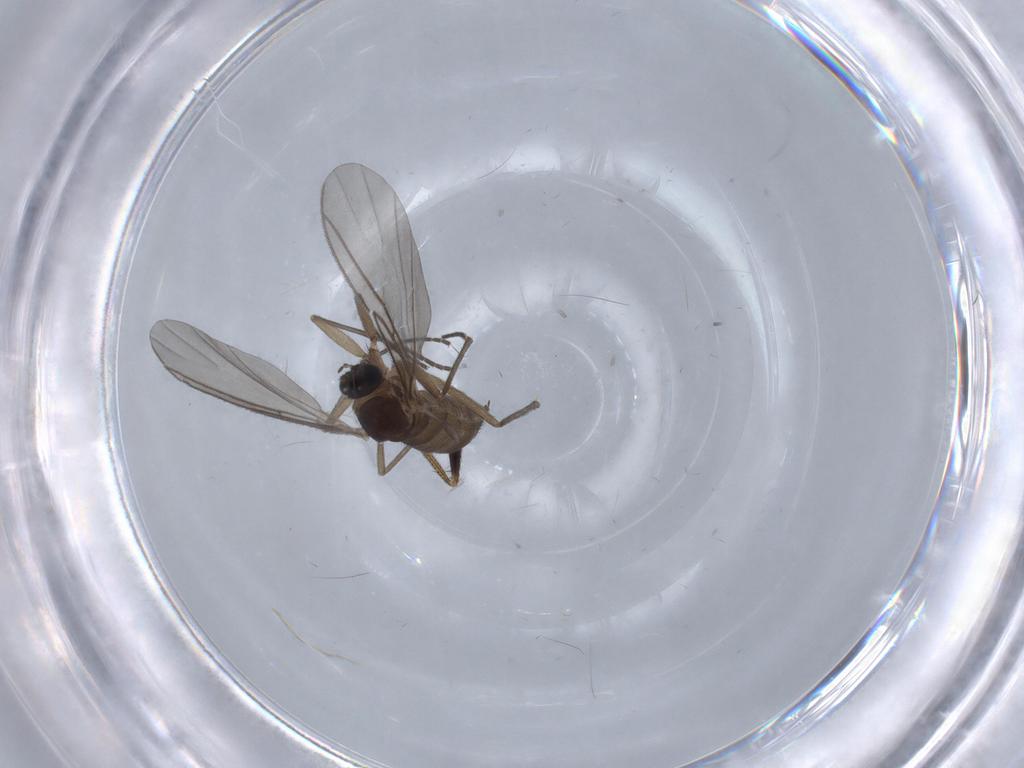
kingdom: Animalia
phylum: Arthropoda
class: Insecta
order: Diptera
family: Sciaridae
